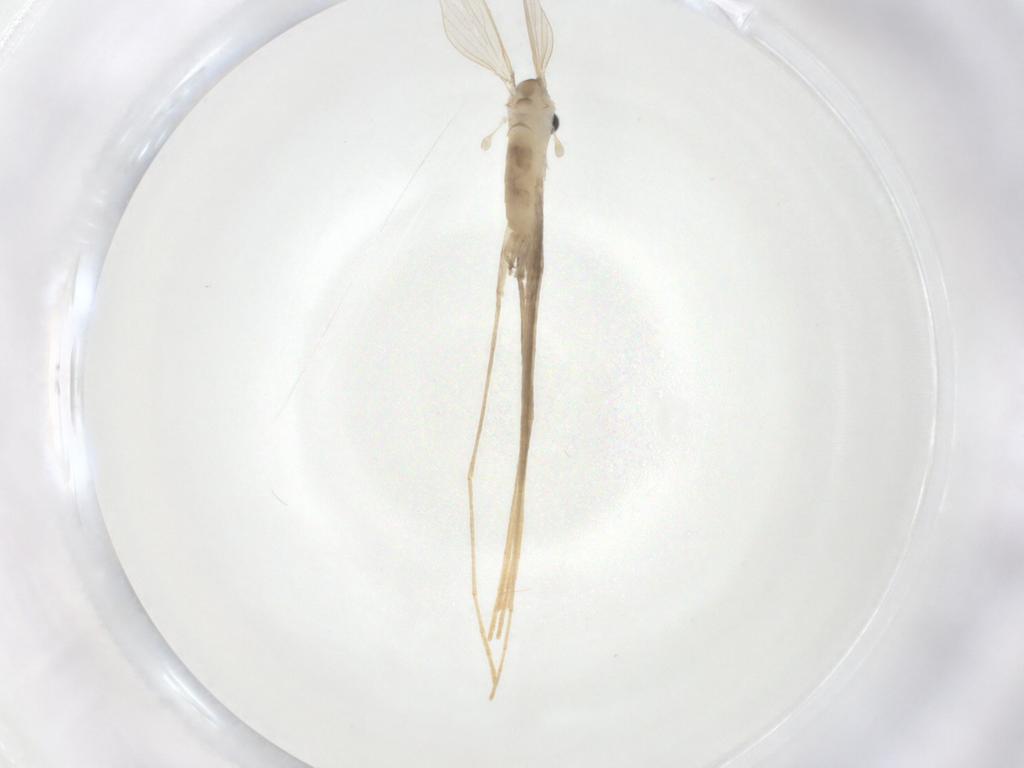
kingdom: Animalia
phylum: Arthropoda
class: Insecta
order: Diptera
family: Psychodidae
